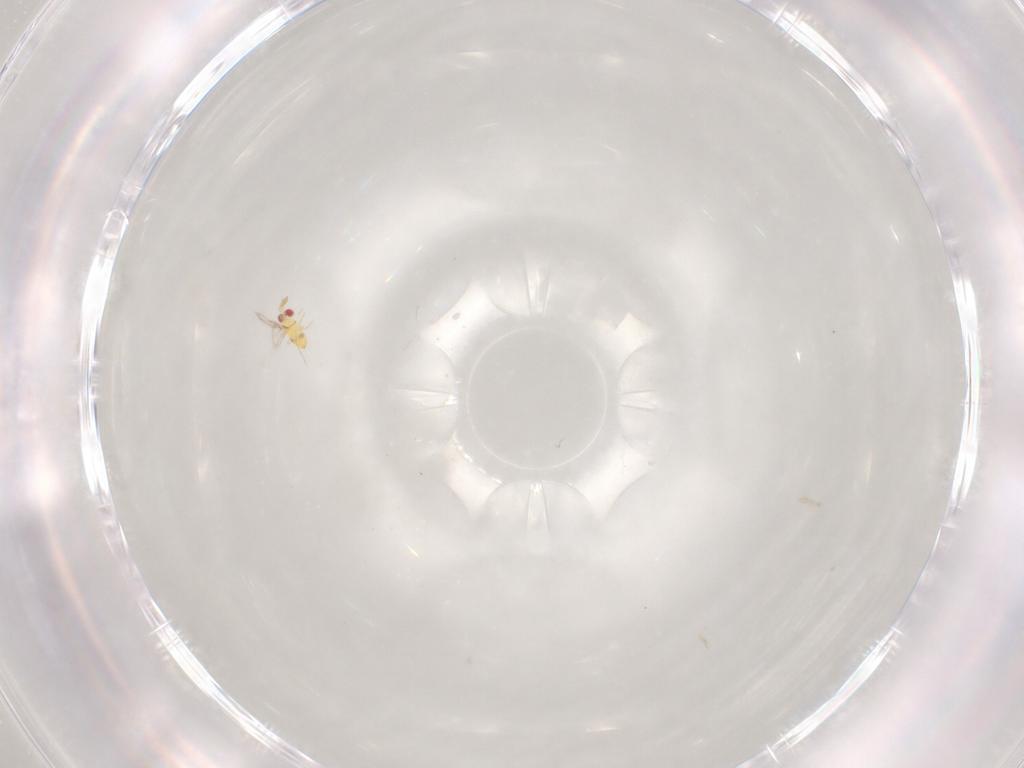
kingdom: Animalia
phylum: Arthropoda
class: Insecta
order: Hymenoptera
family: Trichogrammatidae
